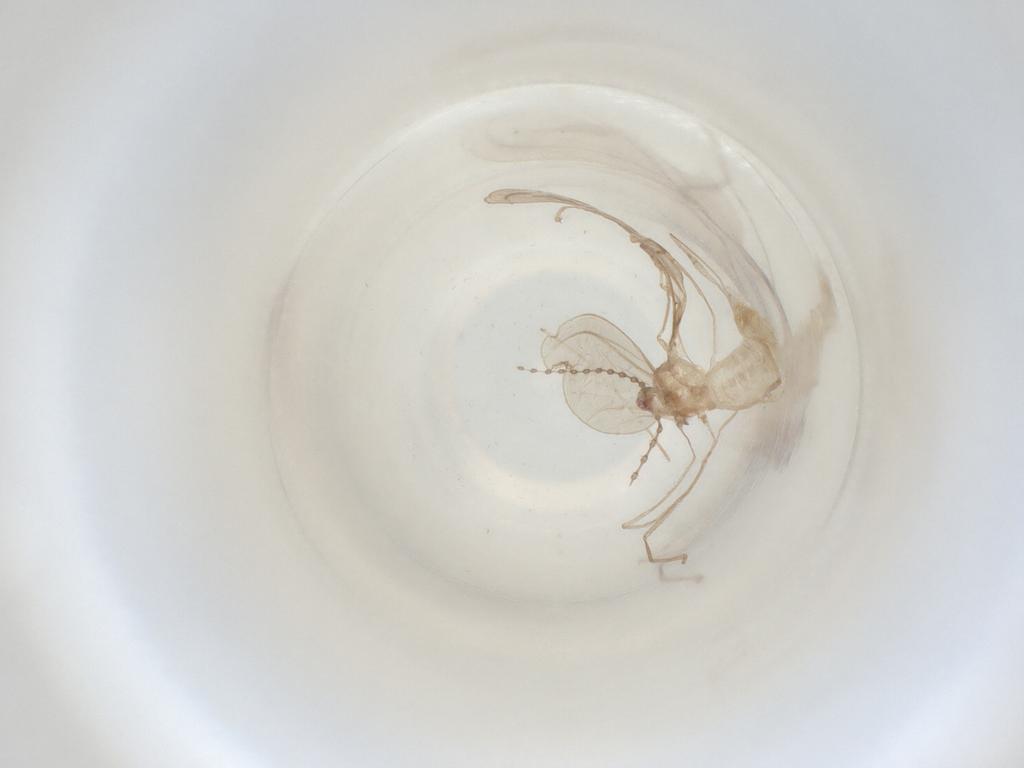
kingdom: Animalia
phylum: Arthropoda
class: Insecta
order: Diptera
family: Cecidomyiidae
